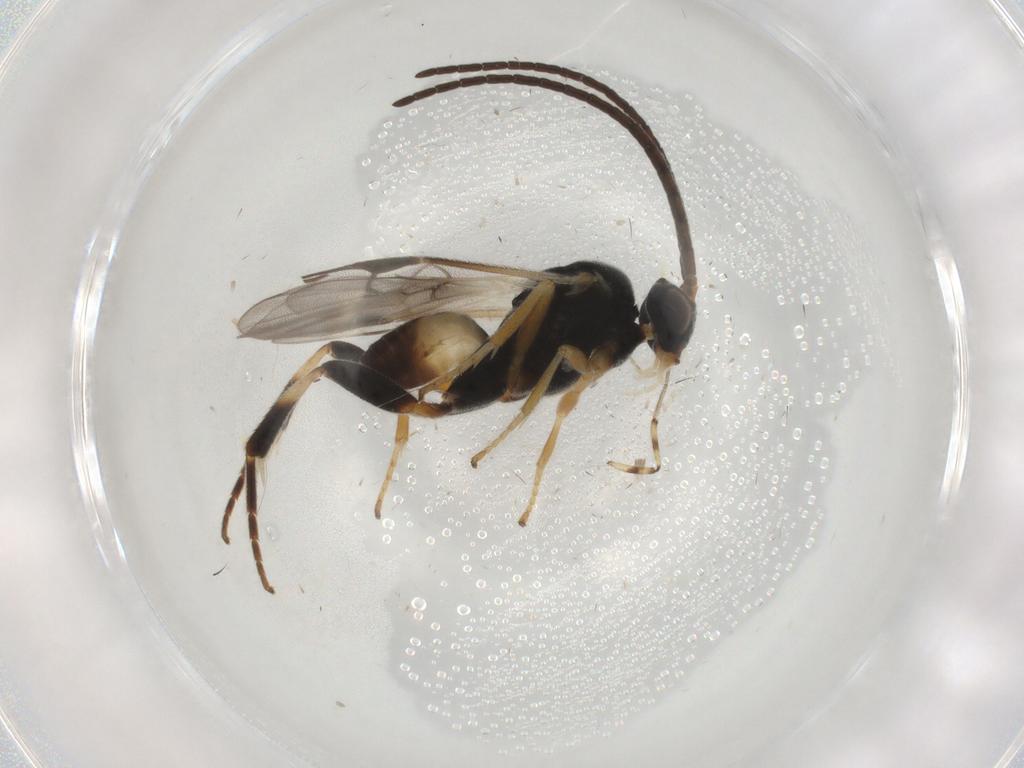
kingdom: Animalia
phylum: Arthropoda
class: Insecta
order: Hymenoptera
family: Braconidae
